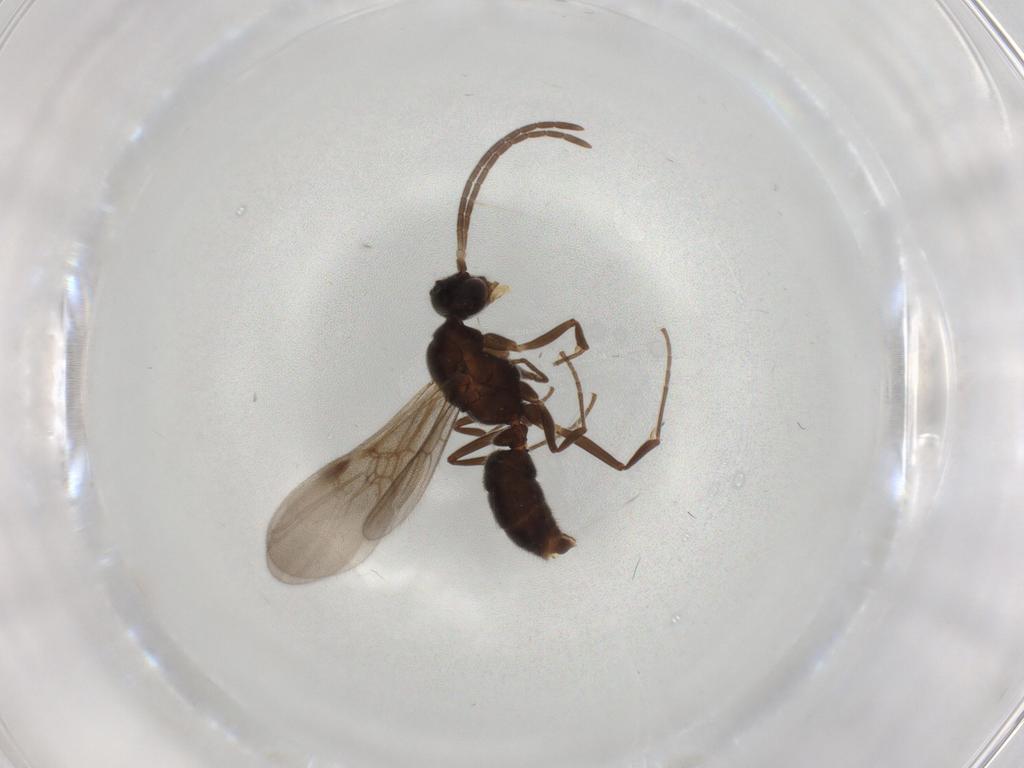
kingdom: Animalia
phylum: Arthropoda
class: Insecta
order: Hymenoptera
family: Formicidae
